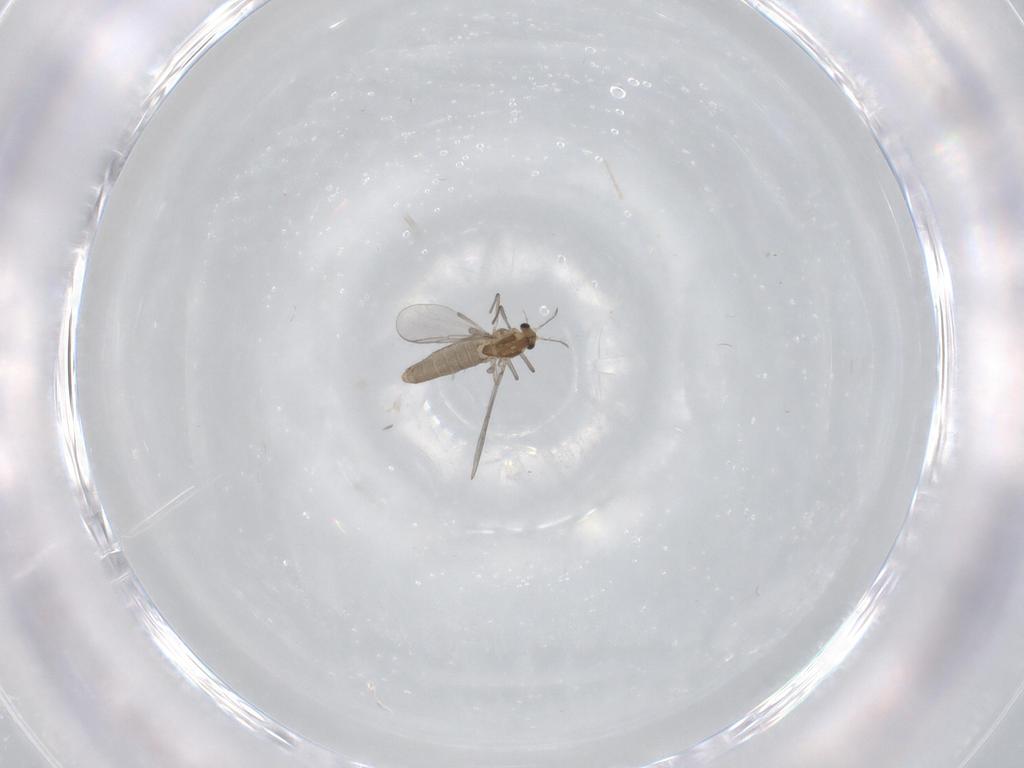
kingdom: Animalia
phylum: Arthropoda
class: Insecta
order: Diptera
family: Chironomidae
